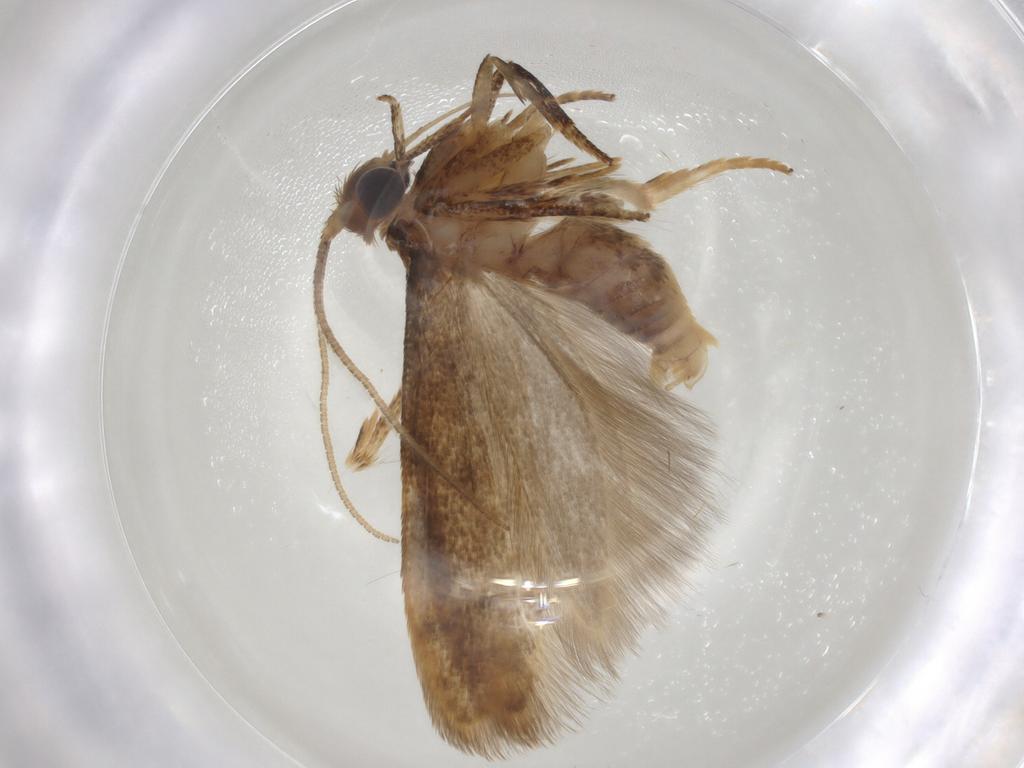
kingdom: Animalia
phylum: Arthropoda
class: Insecta
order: Lepidoptera
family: Blastobasidae
